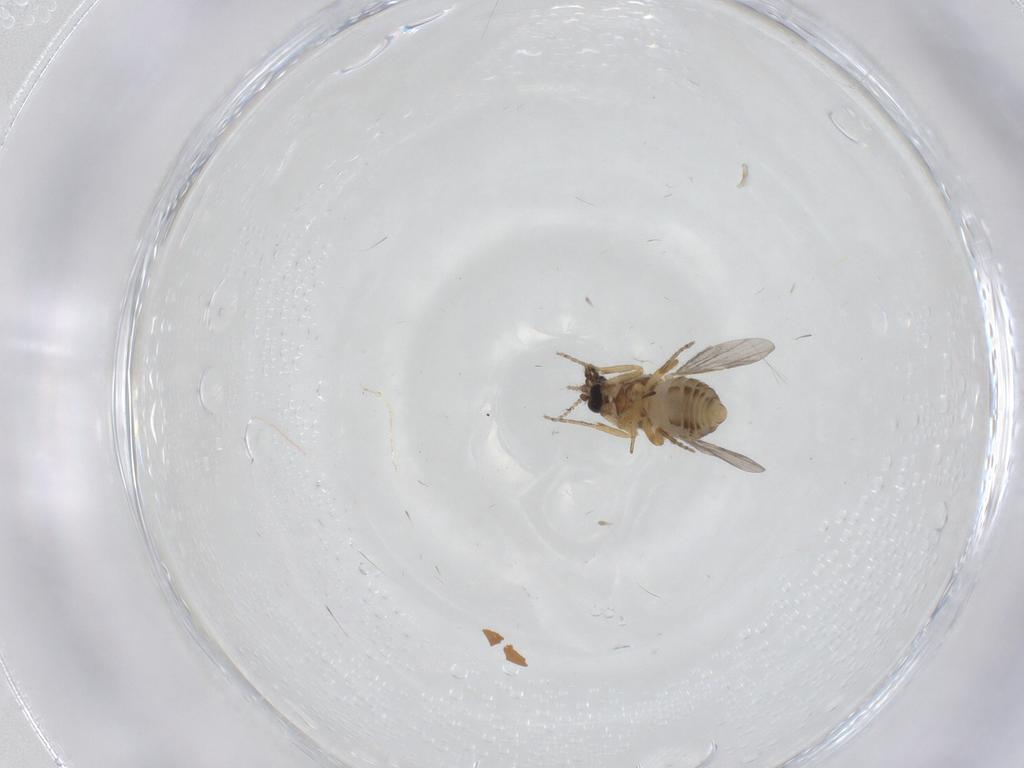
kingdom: Animalia
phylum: Arthropoda
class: Insecta
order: Diptera
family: Ceratopogonidae
